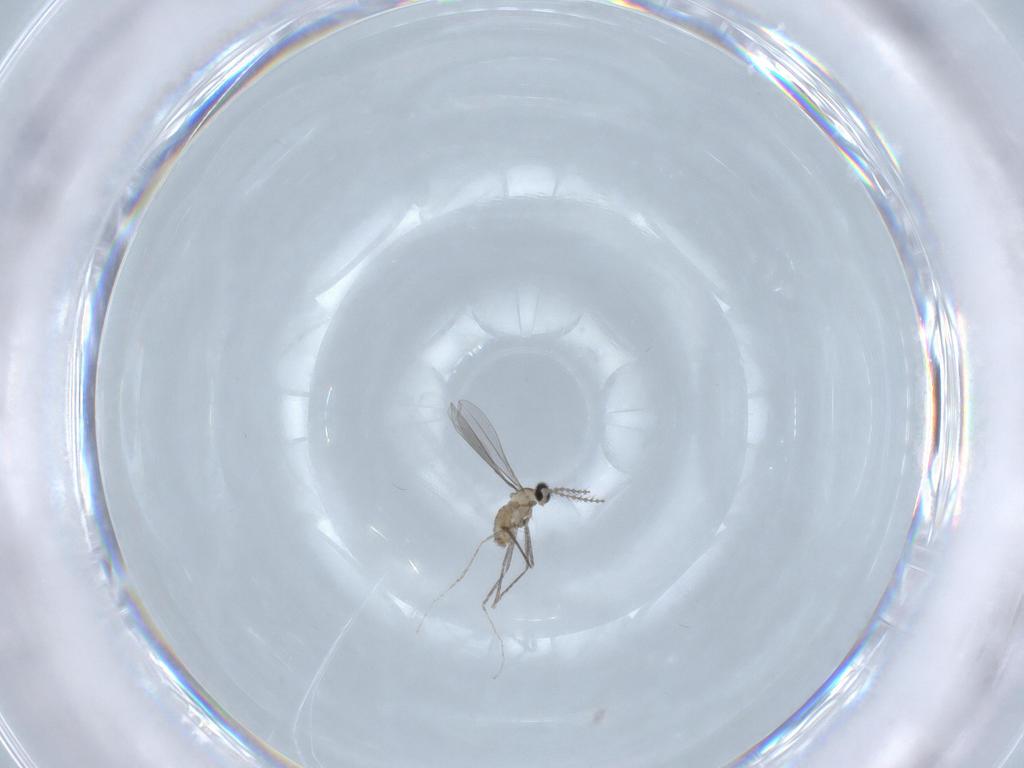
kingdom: Animalia
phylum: Arthropoda
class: Insecta
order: Diptera
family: Cecidomyiidae
